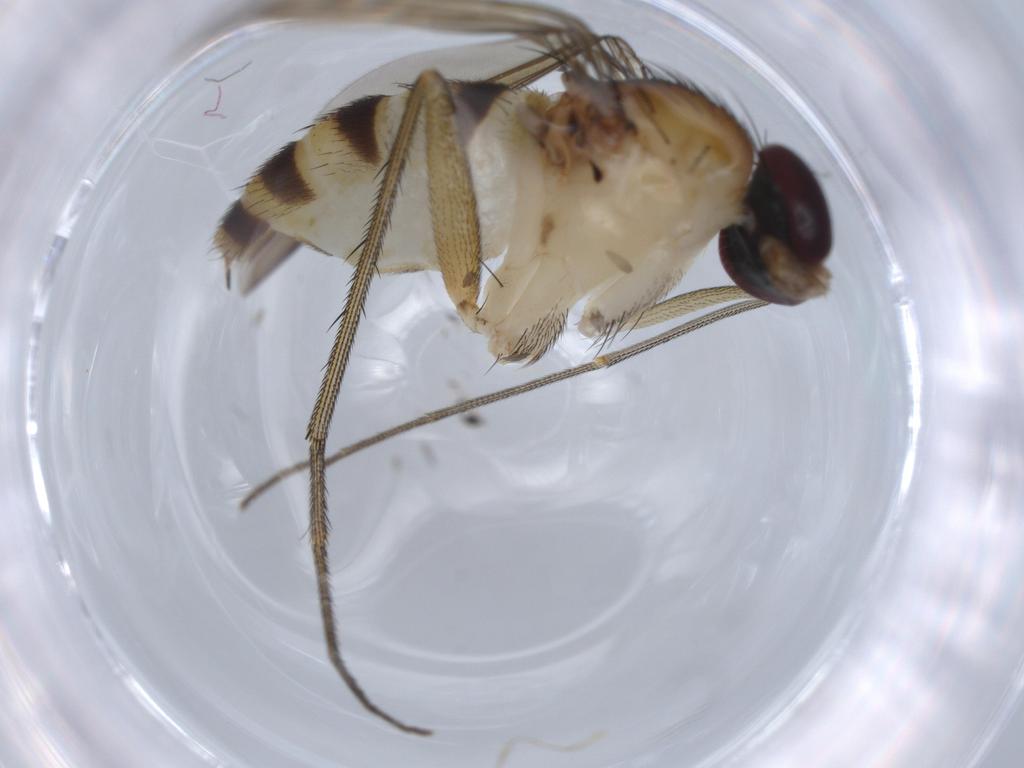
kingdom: Animalia
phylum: Arthropoda
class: Insecta
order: Diptera
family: Dolichopodidae
